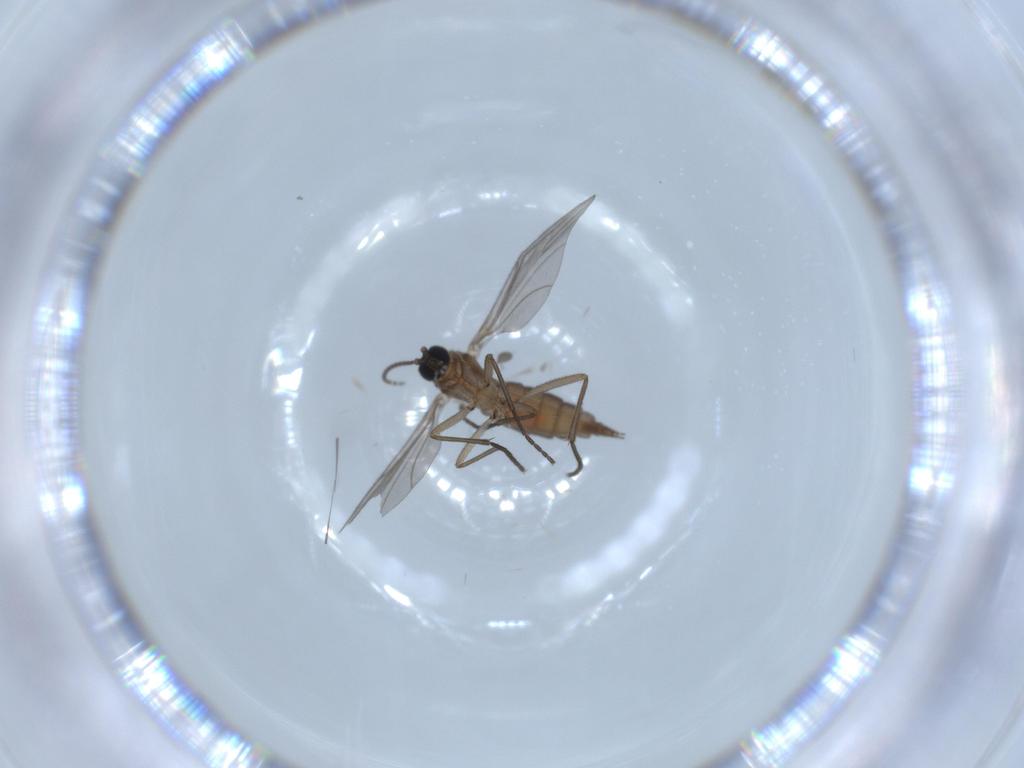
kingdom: Animalia
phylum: Arthropoda
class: Insecta
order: Diptera
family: Sciaridae
